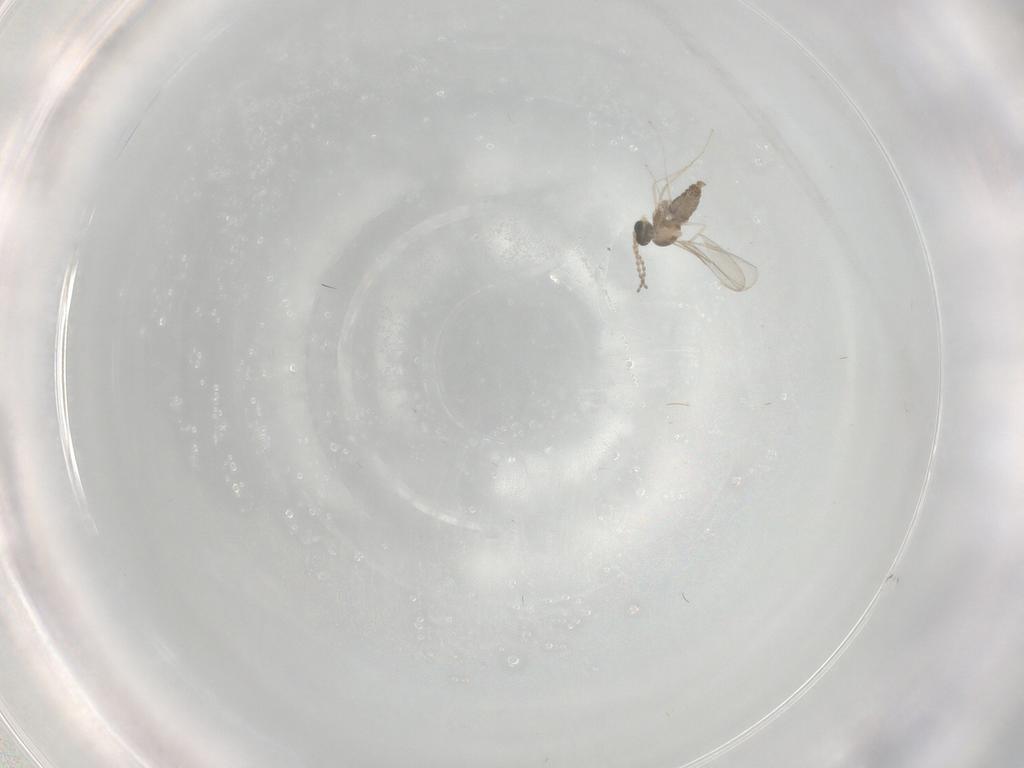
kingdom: Animalia
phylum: Arthropoda
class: Insecta
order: Diptera
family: Cecidomyiidae
